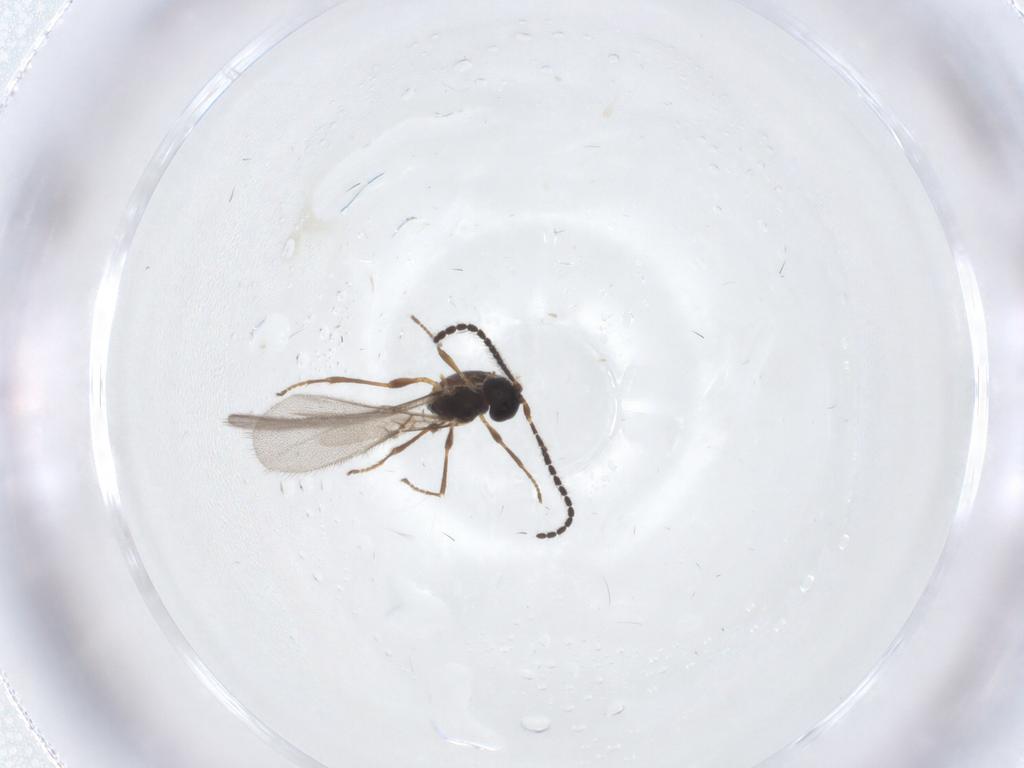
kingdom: Animalia
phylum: Arthropoda
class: Insecta
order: Hymenoptera
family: Braconidae
